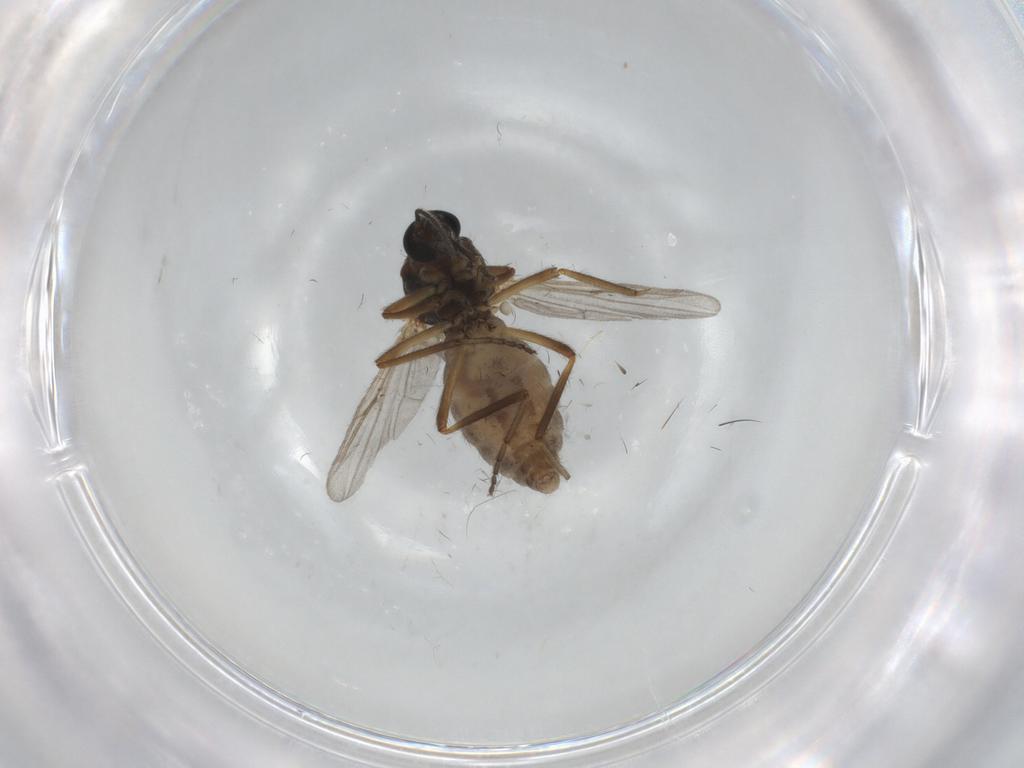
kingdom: Animalia
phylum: Arthropoda
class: Insecta
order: Diptera
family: Ceratopogonidae
